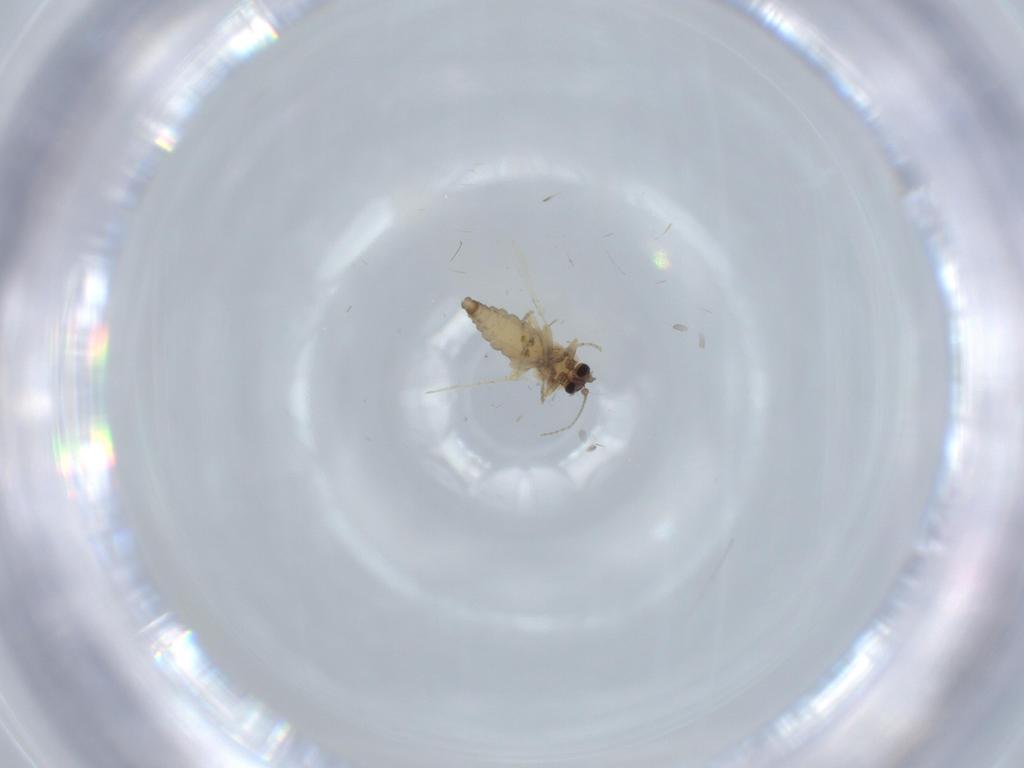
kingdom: Animalia
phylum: Arthropoda
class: Insecta
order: Diptera
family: Ceratopogonidae
